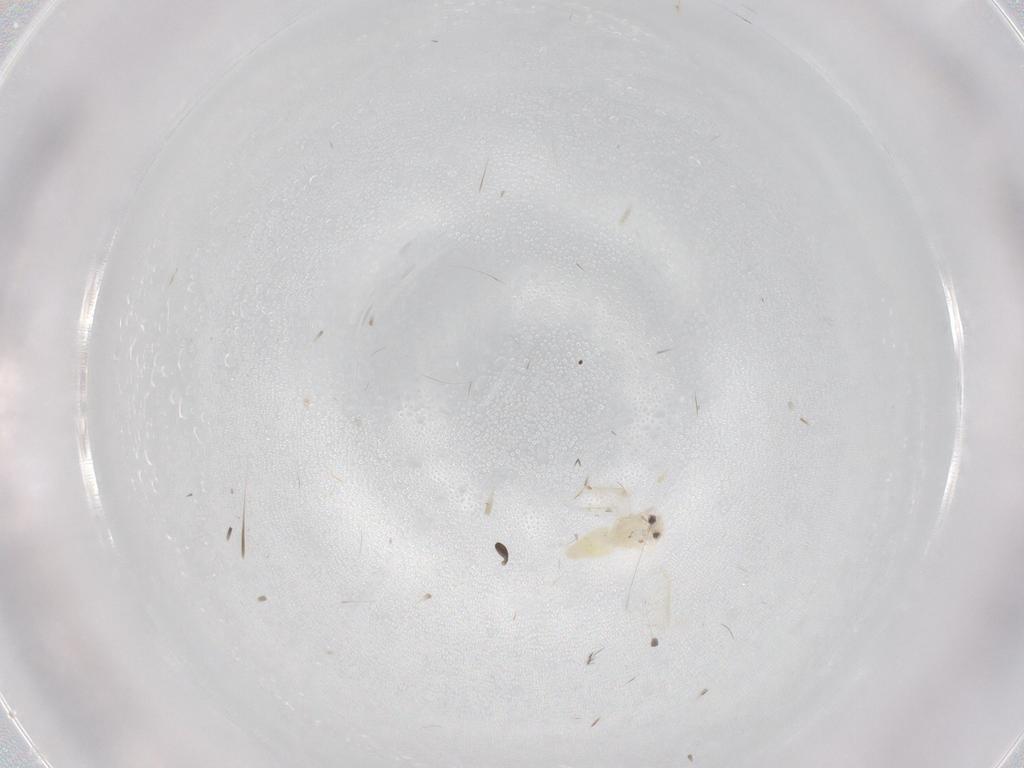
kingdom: Animalia
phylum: Arthropoda
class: Insecta
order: Hemiptera
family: Aleyrodidae
